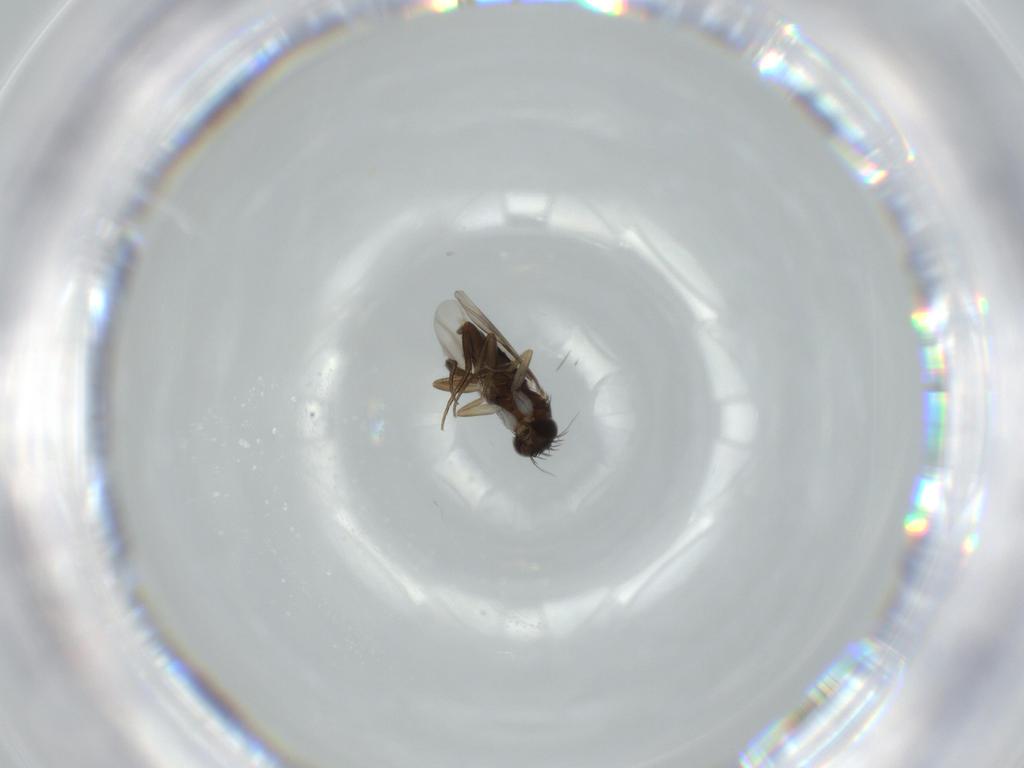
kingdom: Animalia
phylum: Arthropoda
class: Insecta
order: Diptera
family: Phoridae
